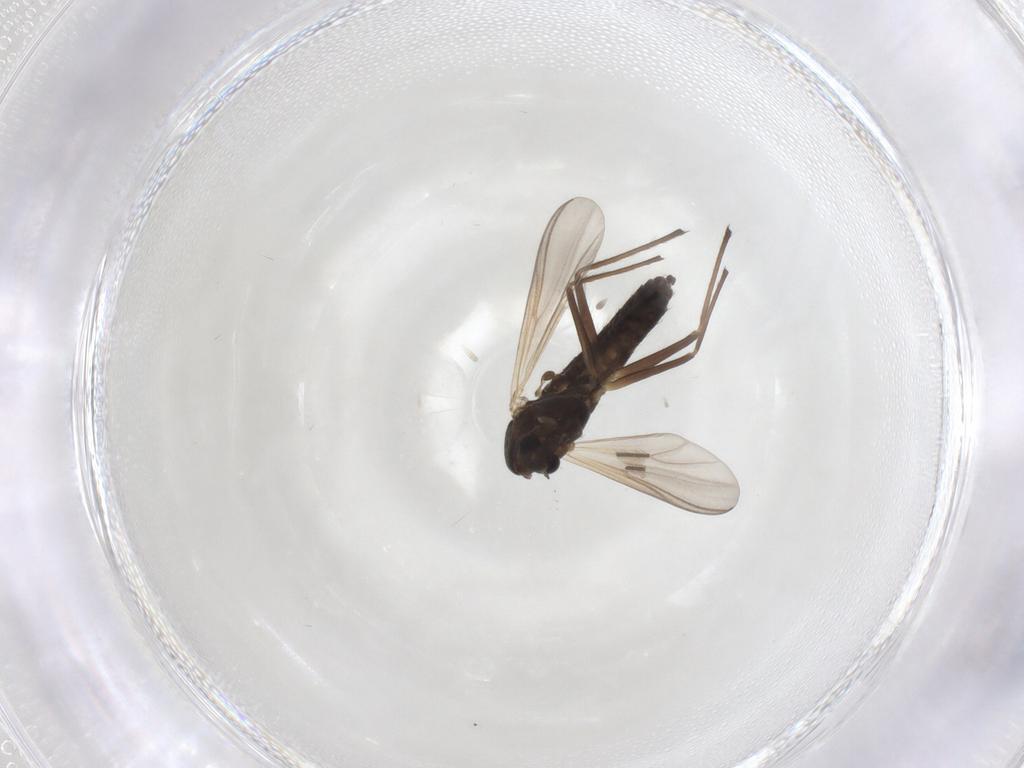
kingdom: Animalia
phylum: Arthropoda
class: Insecta
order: Diptera
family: Chironomidae
